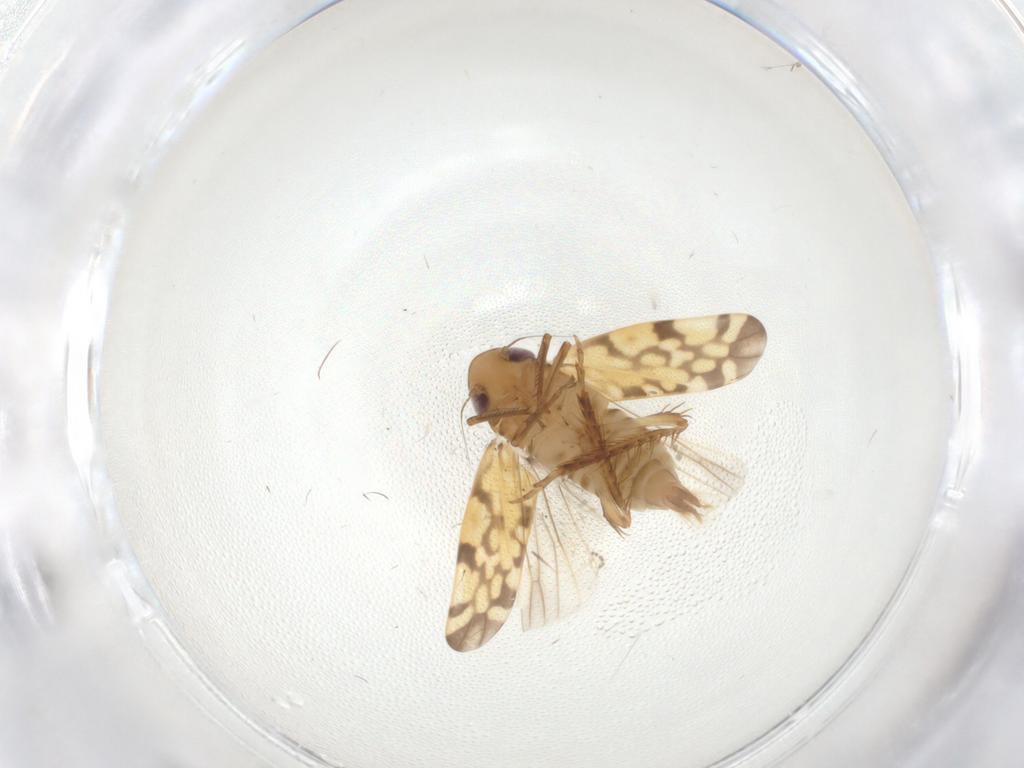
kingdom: Animalia
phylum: Arthropoda
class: Insecta
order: Hemiptera
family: Cicadellidae
